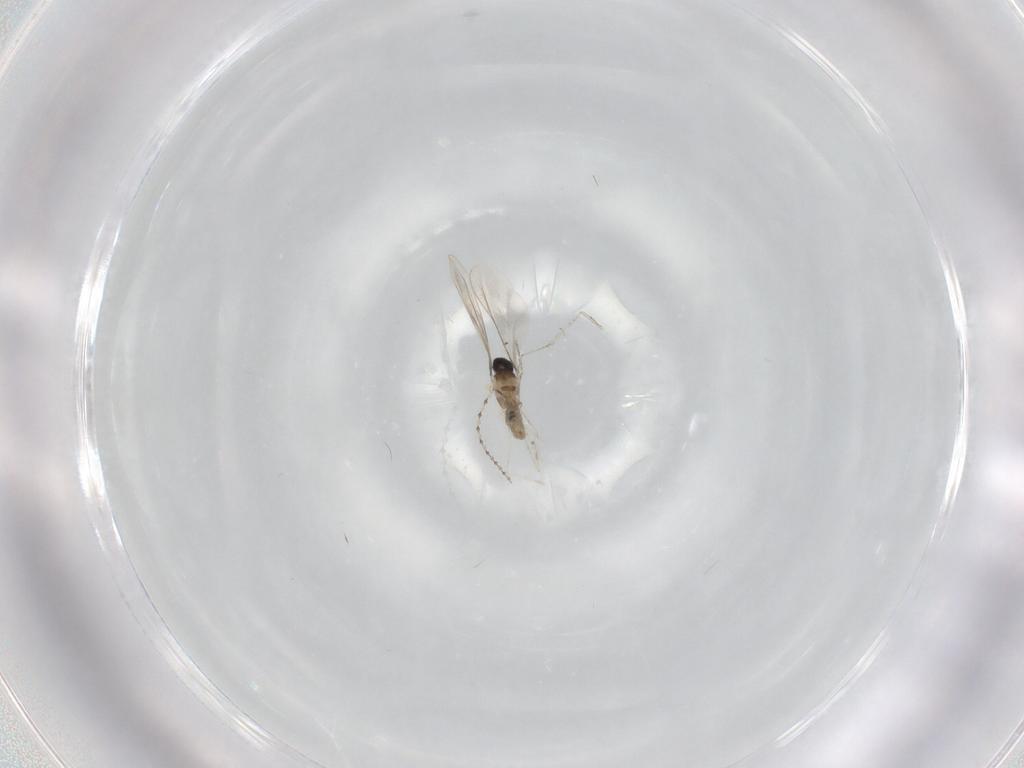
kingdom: Animalia
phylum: Arthropoda
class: Insecta
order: Diptera
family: Cecidomyiidae
